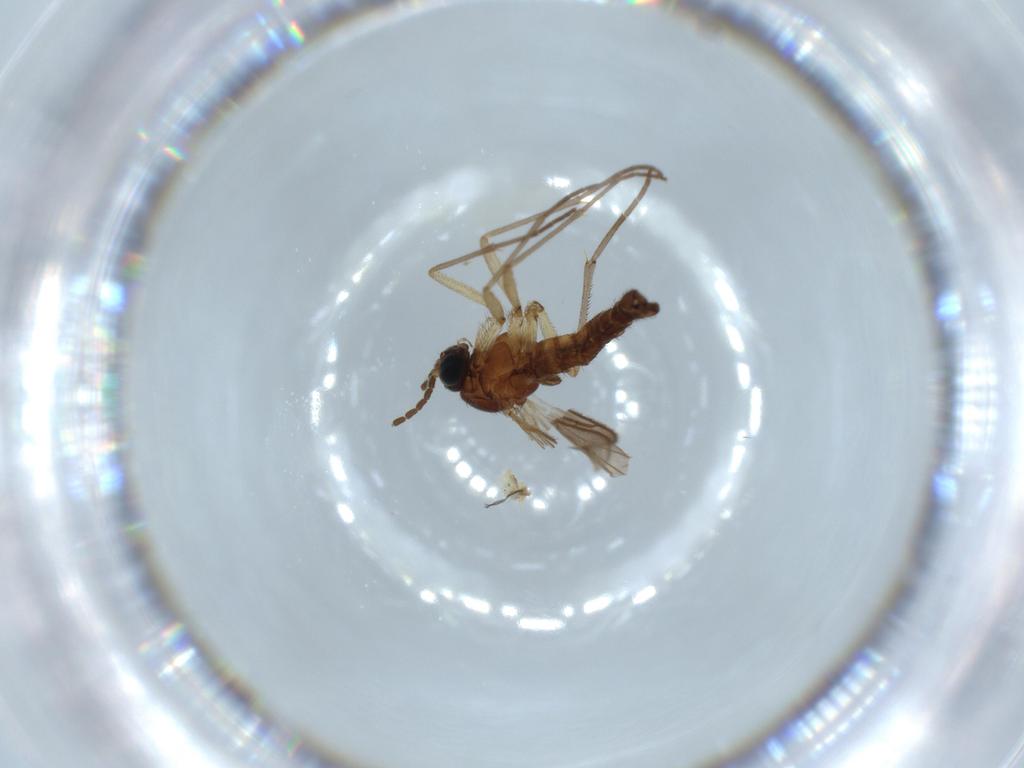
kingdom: Animalia
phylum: Arthropoda
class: Insecta
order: Diptera
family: Sciaridae
